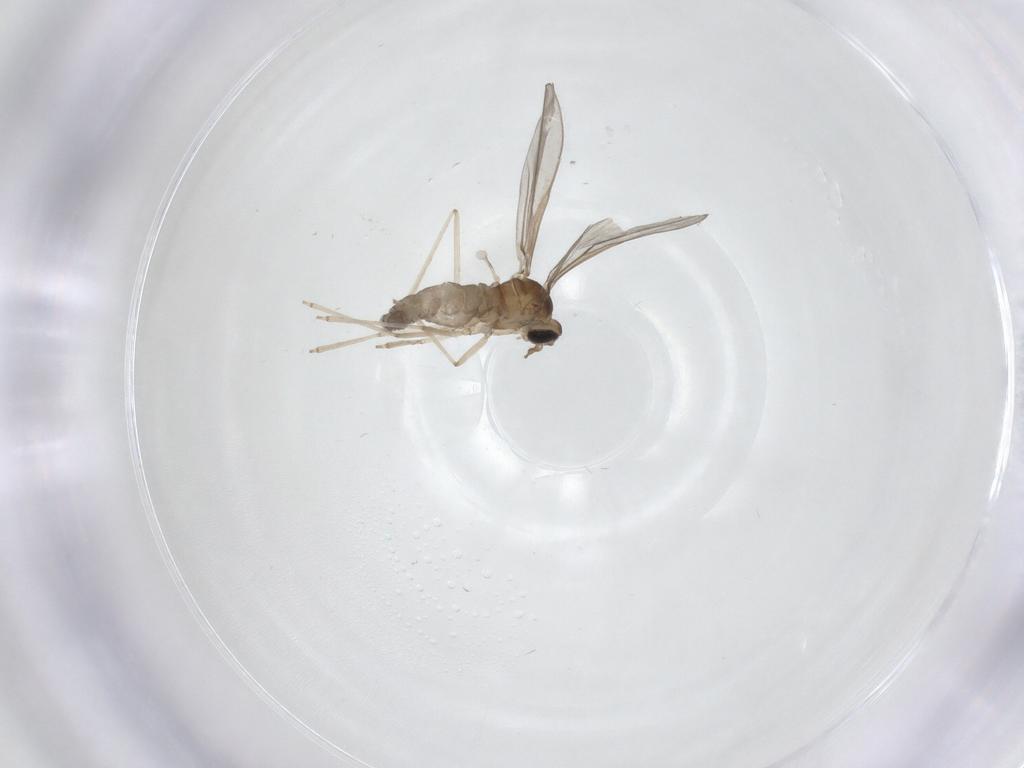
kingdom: Animalia
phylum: Arthropoda
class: Insecta
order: Diptera
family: Cecidomyiidae
